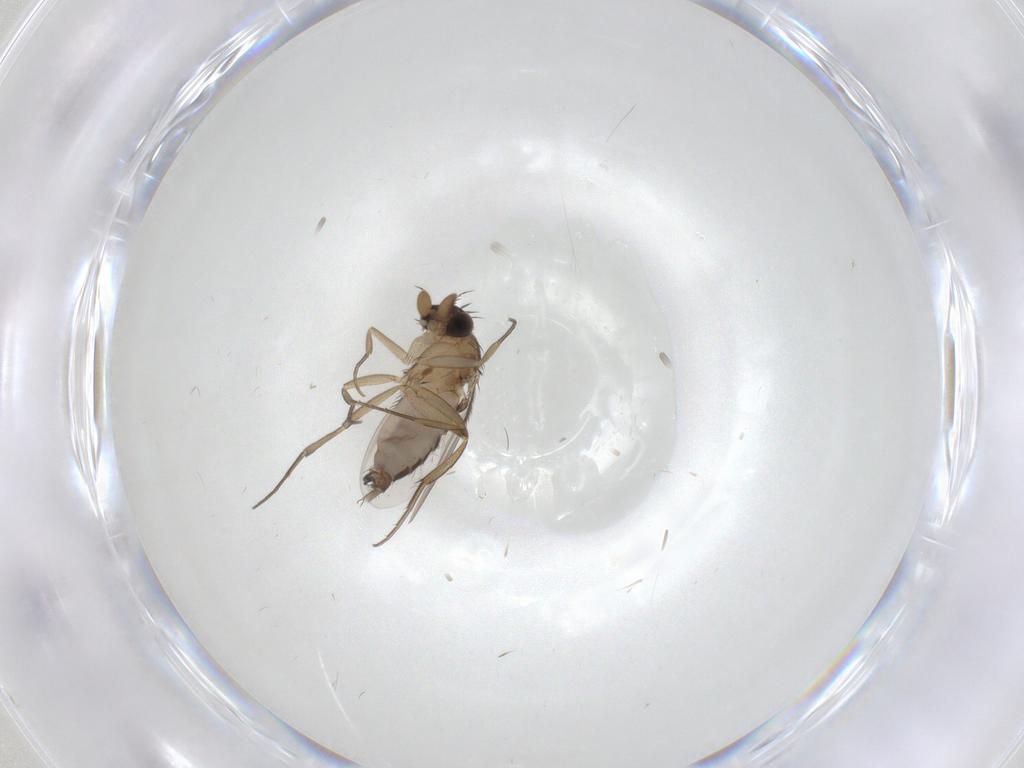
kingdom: Animalia
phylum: Arthropoda
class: Insecta
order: Diptera
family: Phoridae
